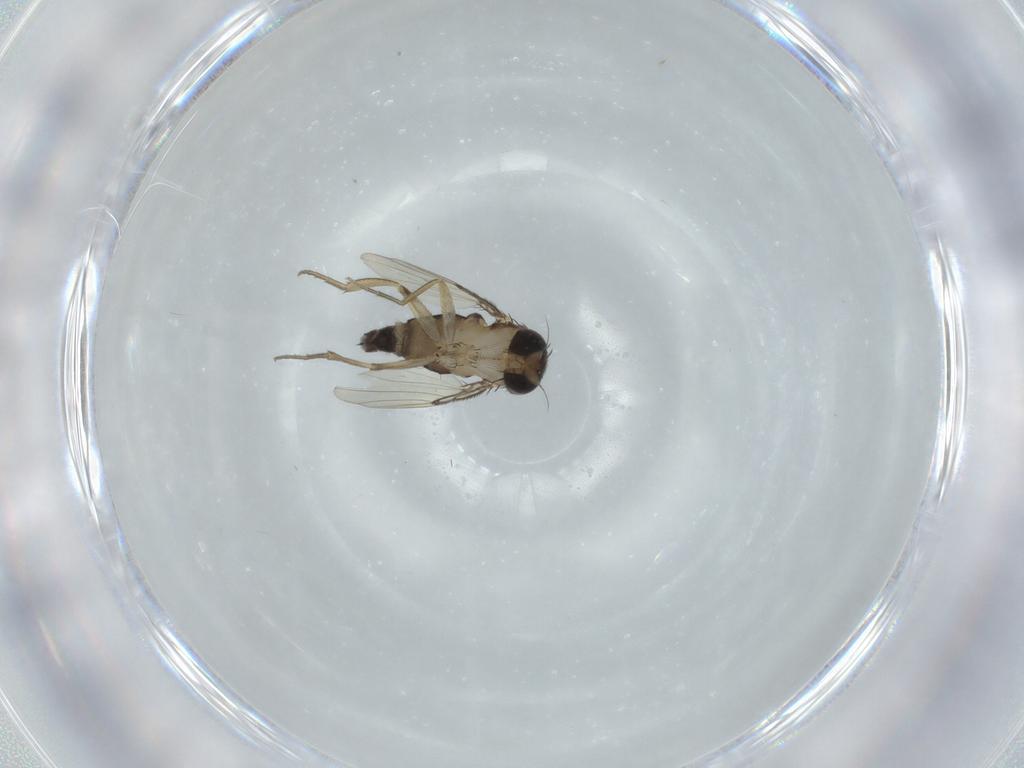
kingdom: Animalia
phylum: Arthropoda
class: Insecta
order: Diptera
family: Phoridae
